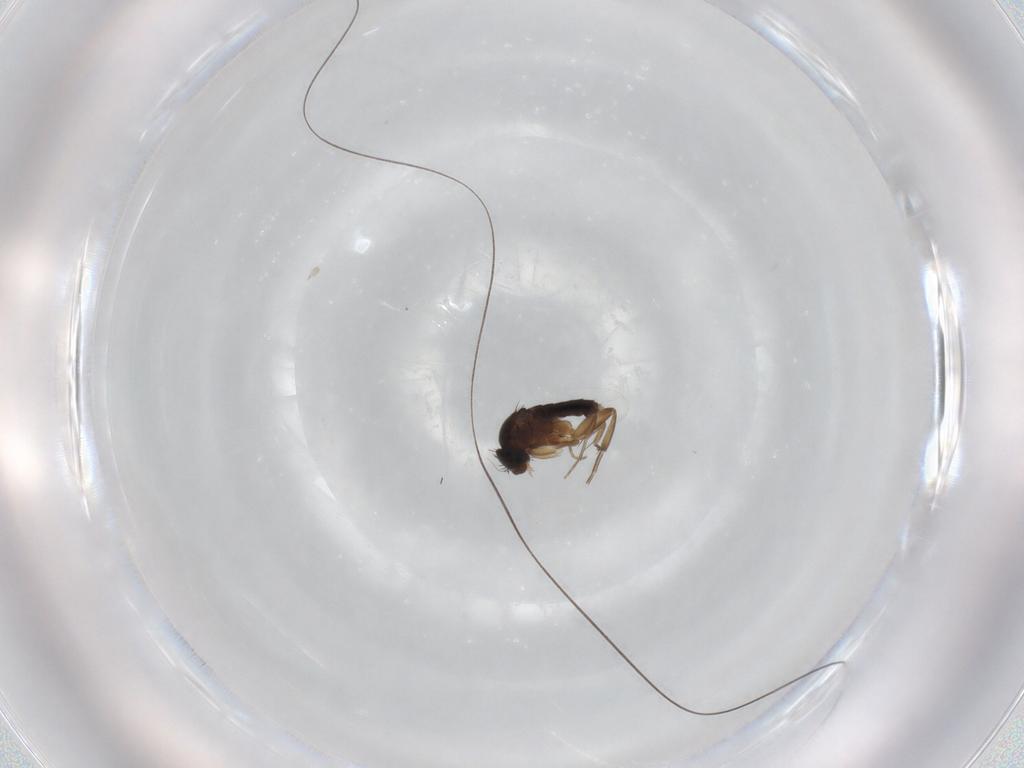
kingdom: Animalia
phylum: Arthropoda
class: Insecta
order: Diptera
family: Phoridae
